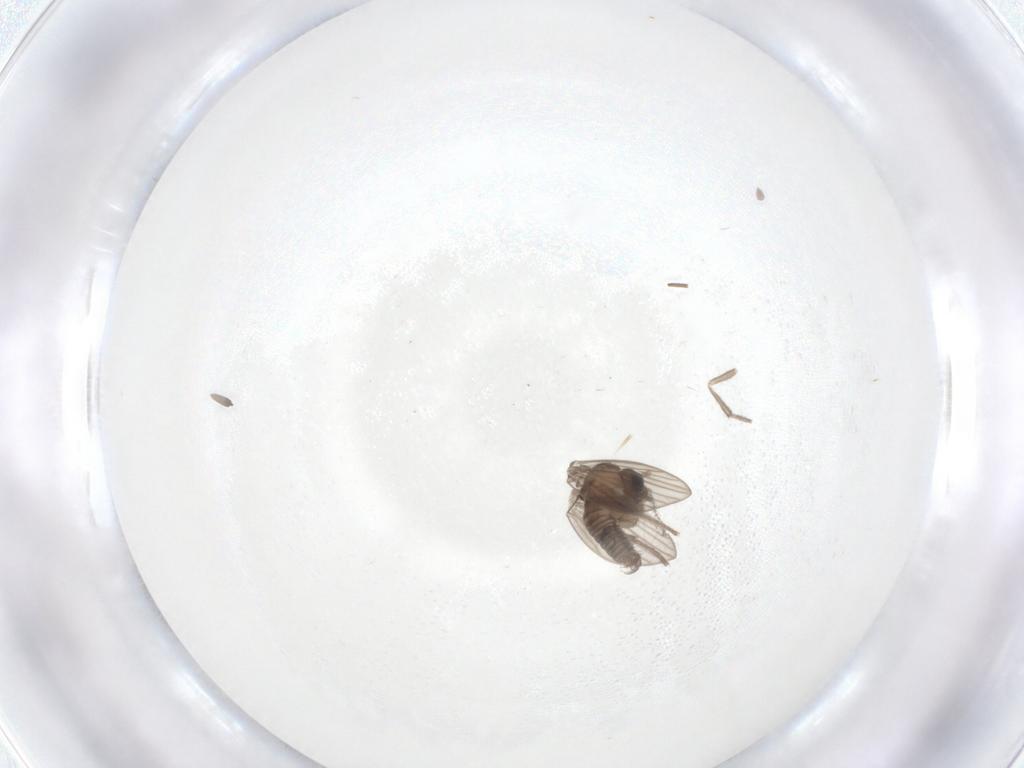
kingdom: Animalia
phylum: Arthropoda
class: Insecta
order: Diptera
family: Psychodidae
